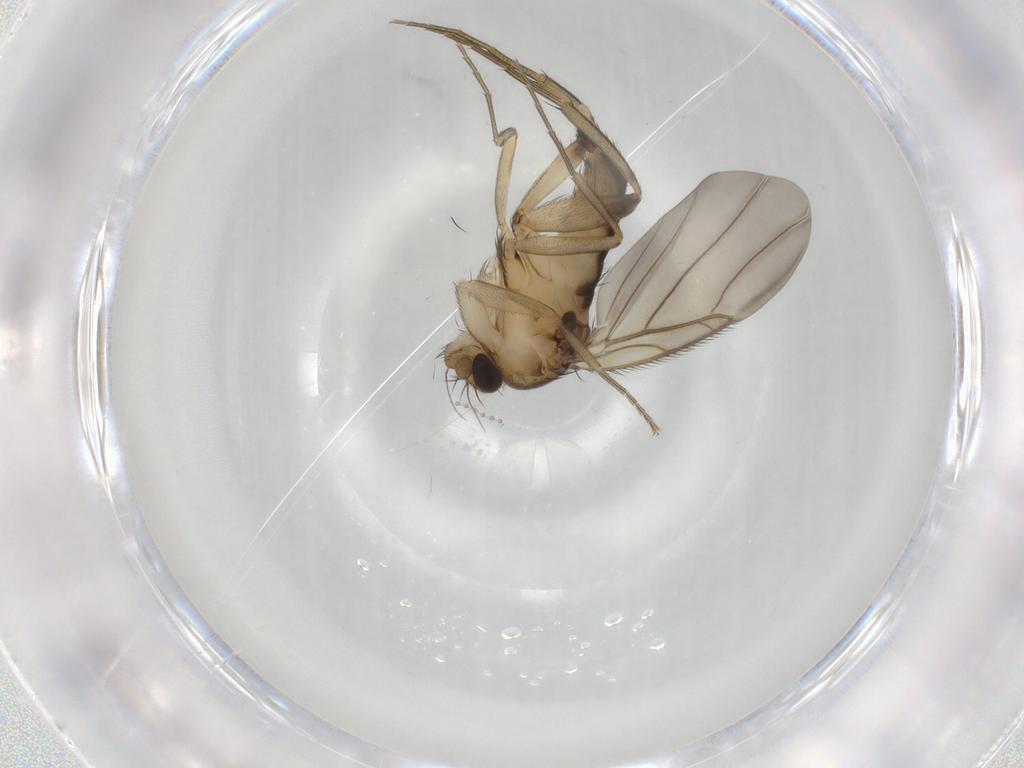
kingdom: Animalia
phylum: Arthropoda
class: Insecta
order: Diptera
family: Phoridae
